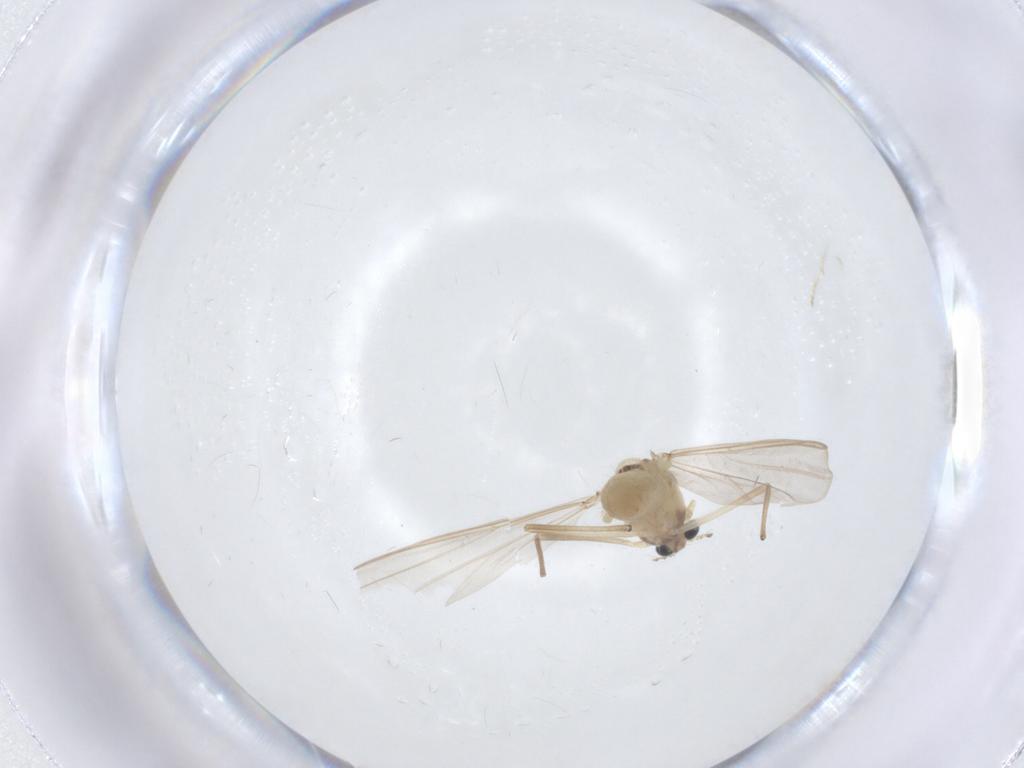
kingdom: Animalia
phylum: Arthropoda
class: Insecta
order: Diptera
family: Chironomidae
